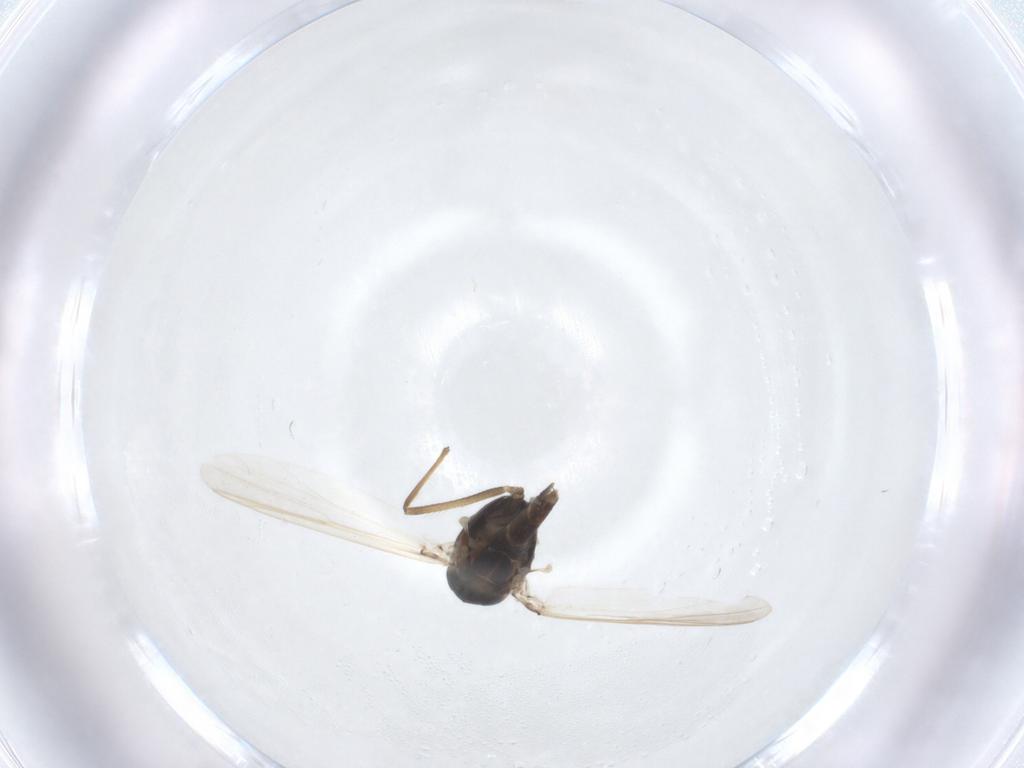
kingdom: Animalia
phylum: Arthropoda
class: Insecta
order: Diptera
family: Chironomidae
